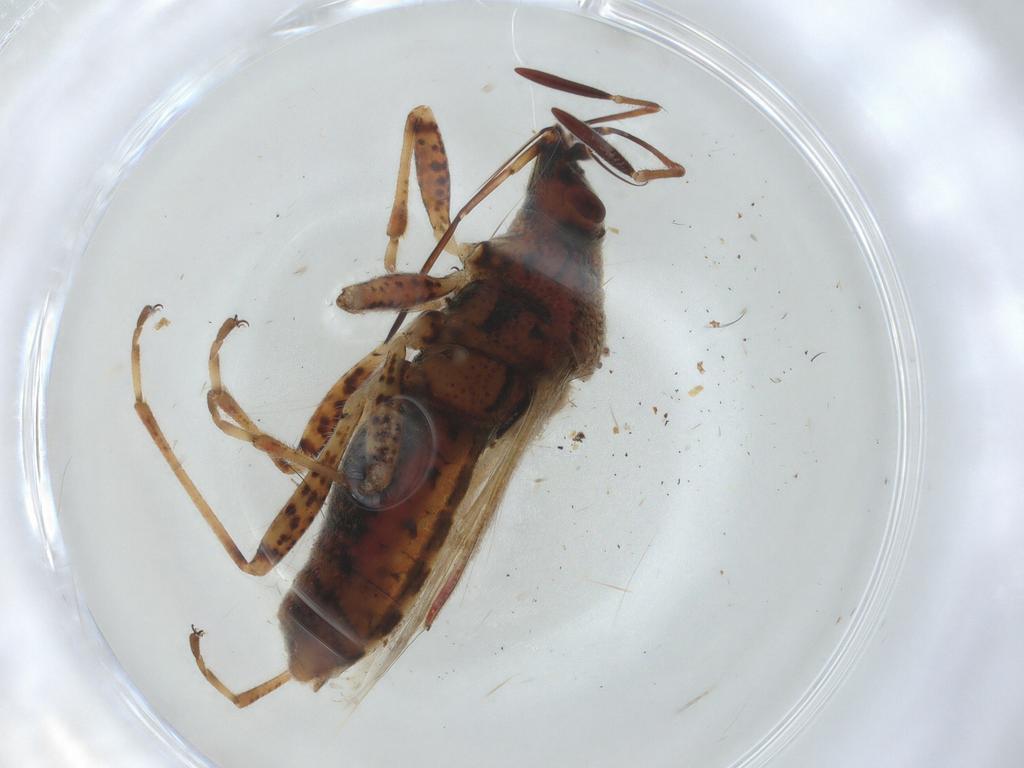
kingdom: Animalia
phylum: Arthropoda
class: Insecta
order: Hemiptera
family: Lygaeidae
